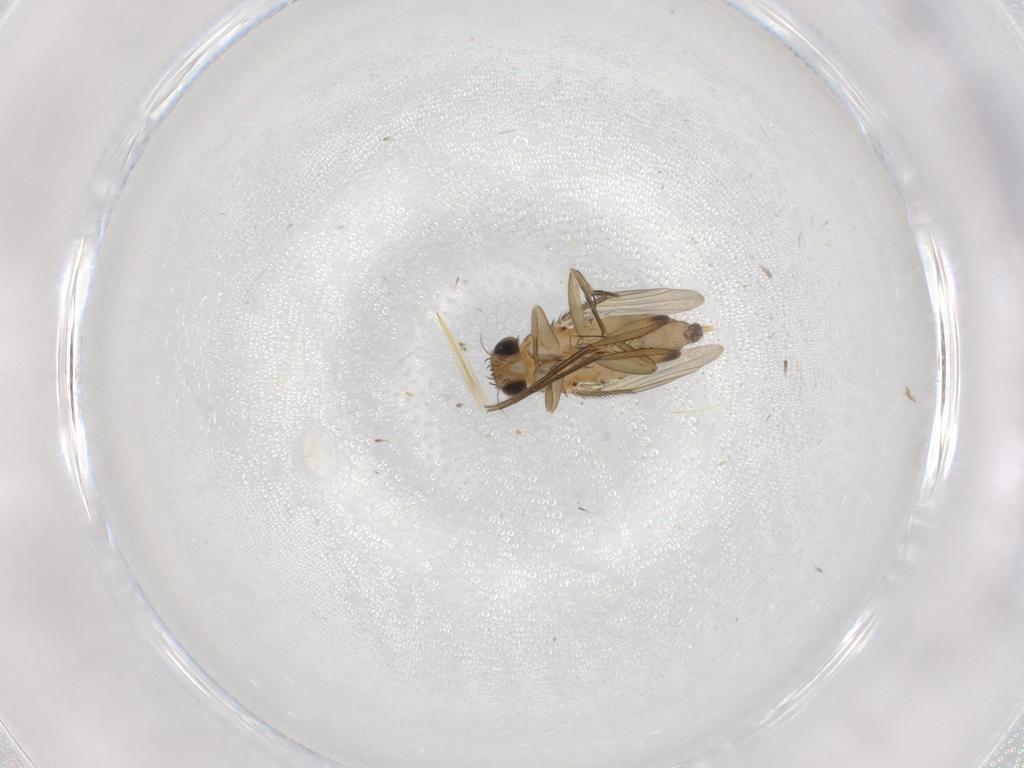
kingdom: Animalia
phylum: Arthropoda
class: Insecta
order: Diptera
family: Phoridae
